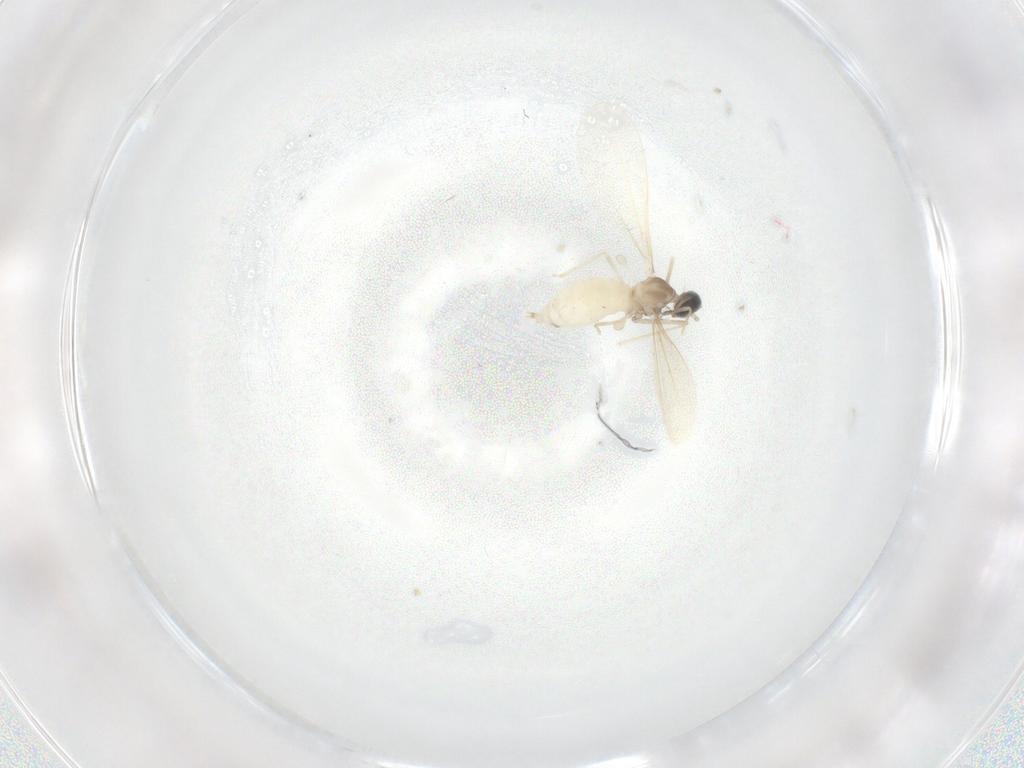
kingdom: Animalia
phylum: Arthropoda
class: Insecta
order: Diptera
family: Cecidomyiidae
